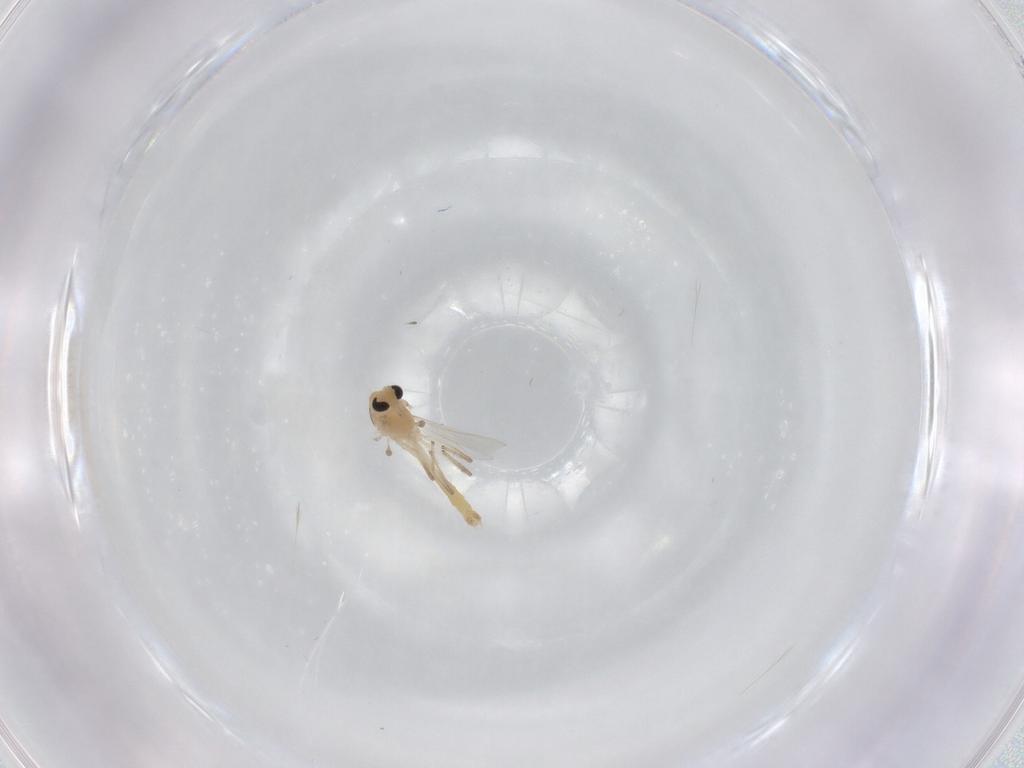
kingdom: Animalia
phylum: Arthropoda
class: Insecta
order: Diptera
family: Chironomidae
